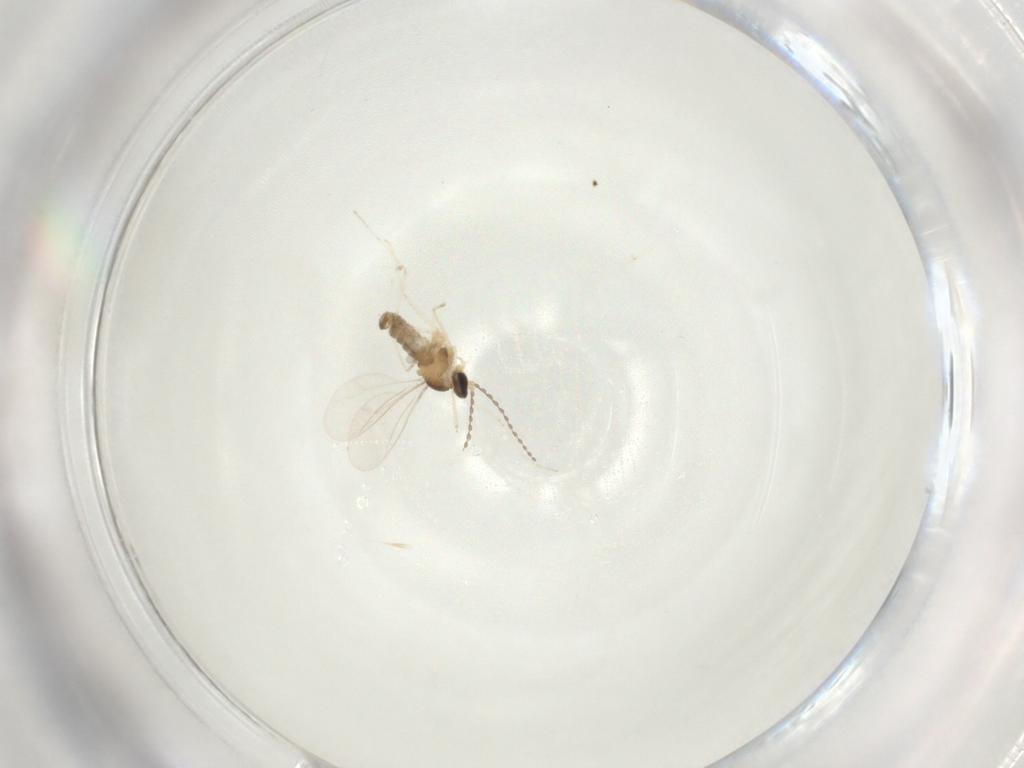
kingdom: Animalia
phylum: Arthropoda
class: Insecta
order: Diptera
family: Cecidomyiidae
